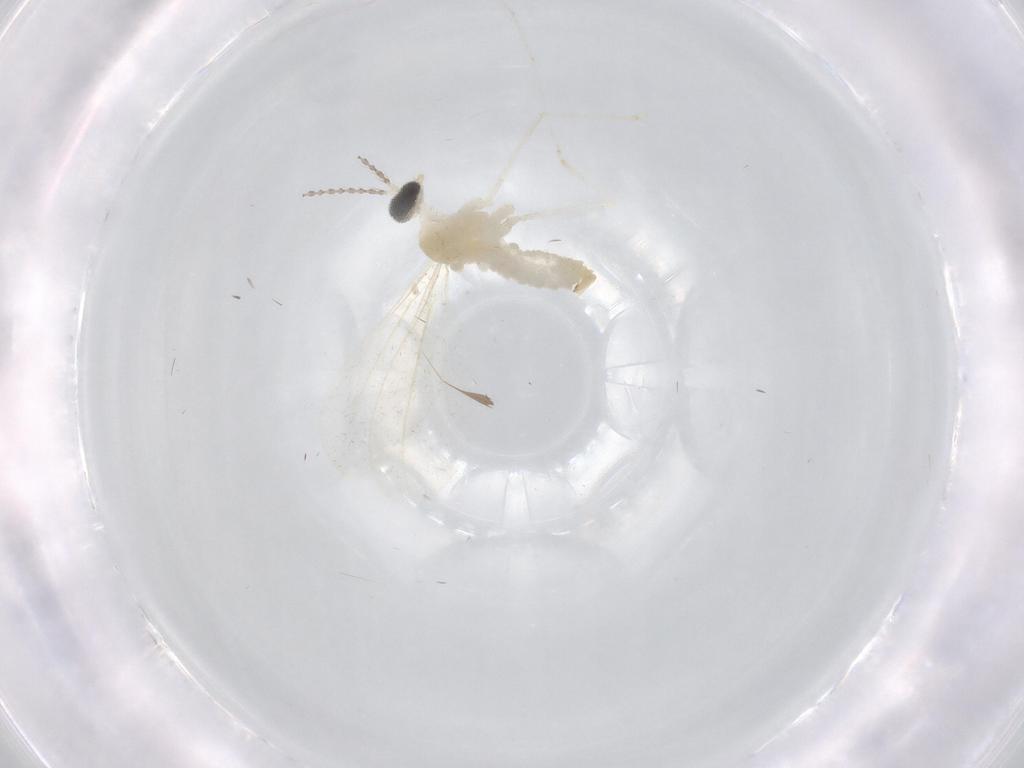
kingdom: Animalia
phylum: Arthropoda
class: Insecta
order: Diptera
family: Cecidomyiidae
